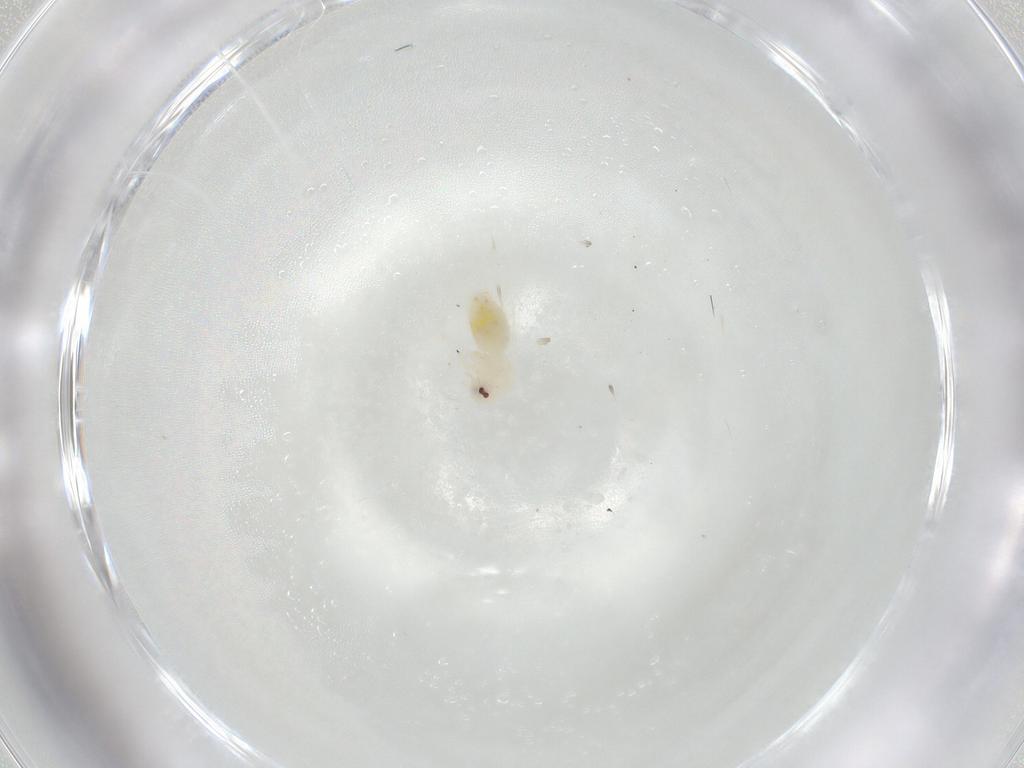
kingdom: Animalia
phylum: Arthropoda
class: Insecta
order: Hemiptera
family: Aleyrodidae
